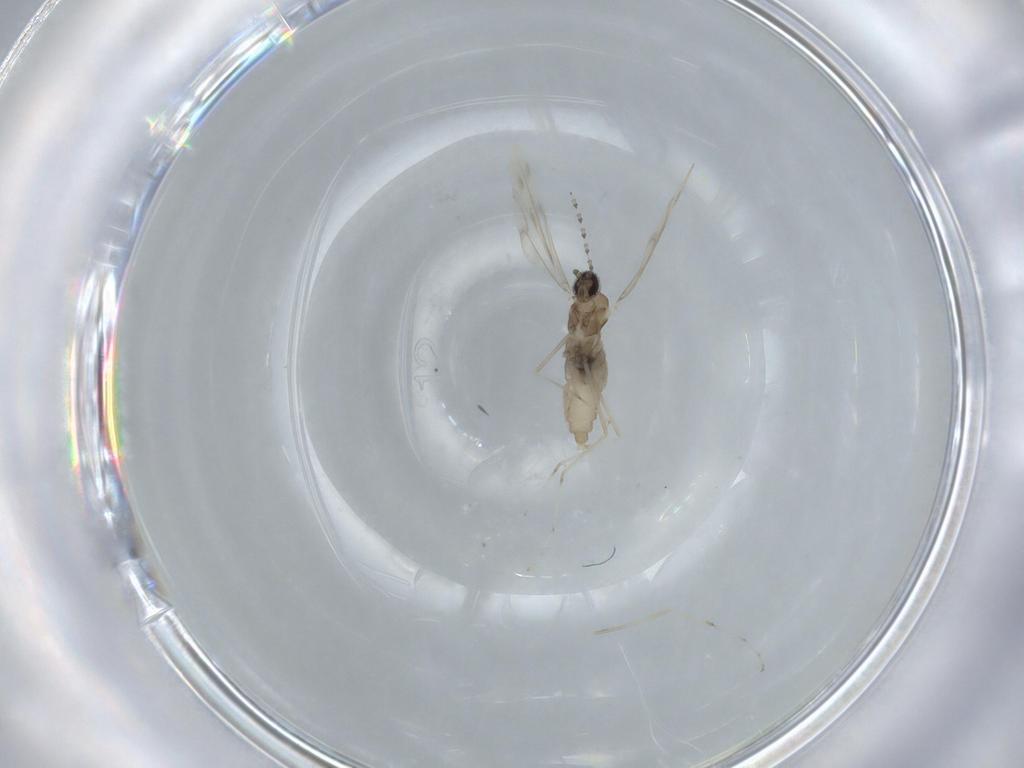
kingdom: Animalia
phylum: Arthropoda
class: Insecta
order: Diptera
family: Cecidomyiidae
